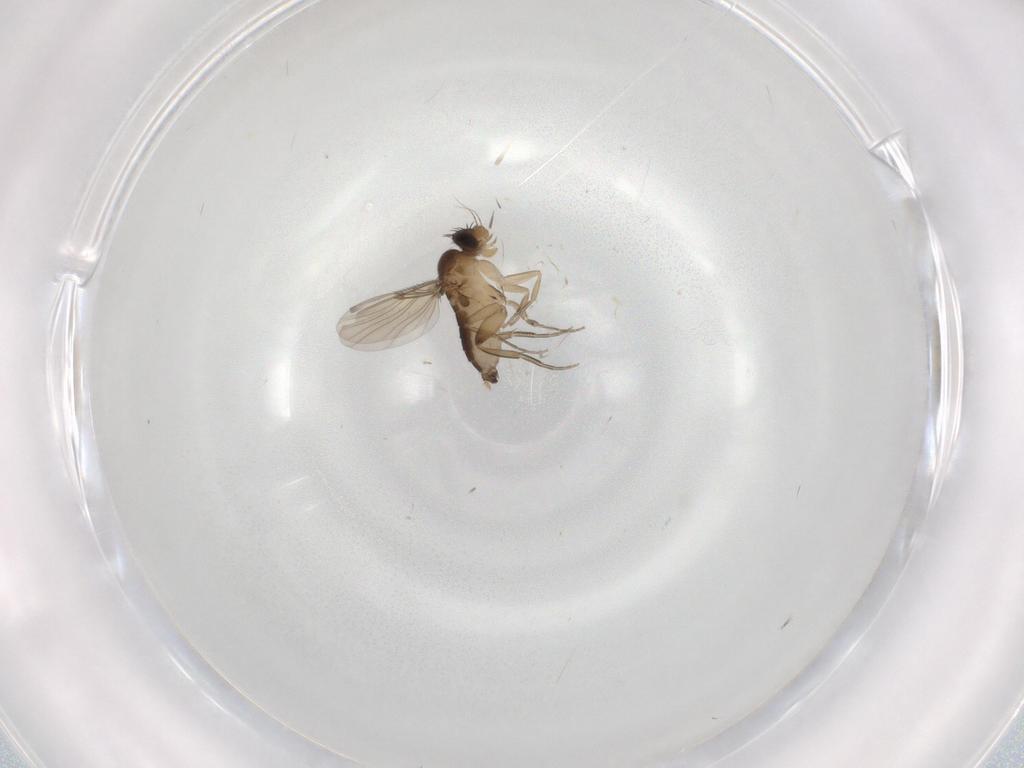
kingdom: Animalia
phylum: Arthropoda
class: Insecta
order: Diptera
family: Phoridae
